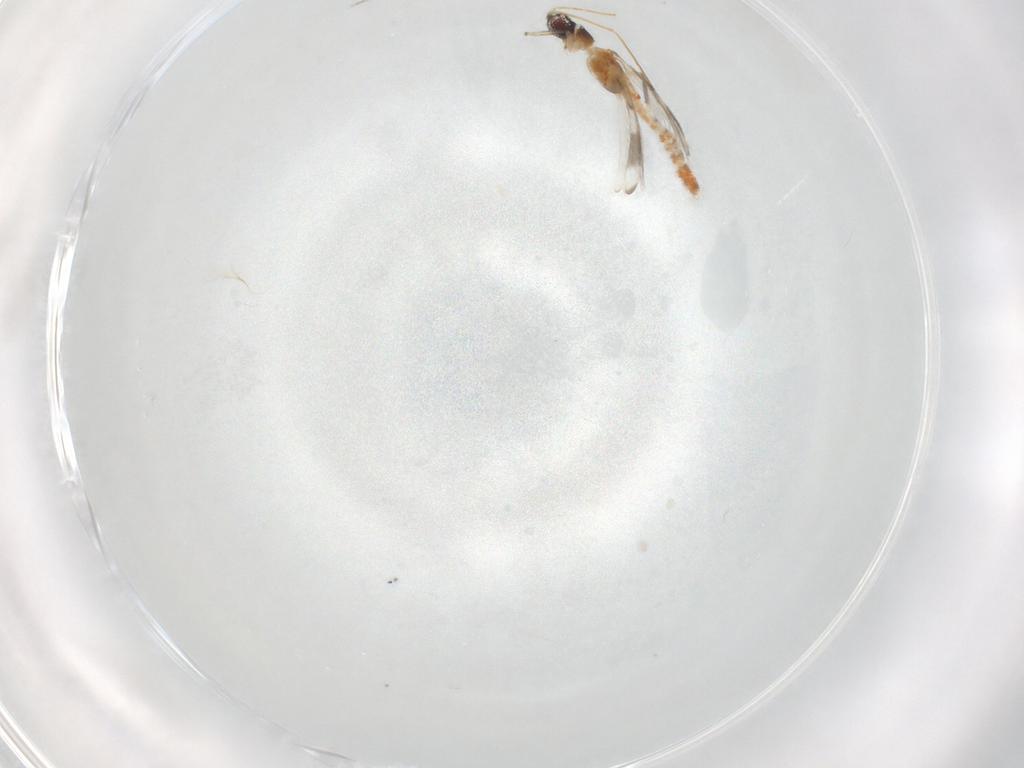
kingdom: Animalia
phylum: Arthropoda
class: Insecta
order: Thysanoptera
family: Aeolothripidae
